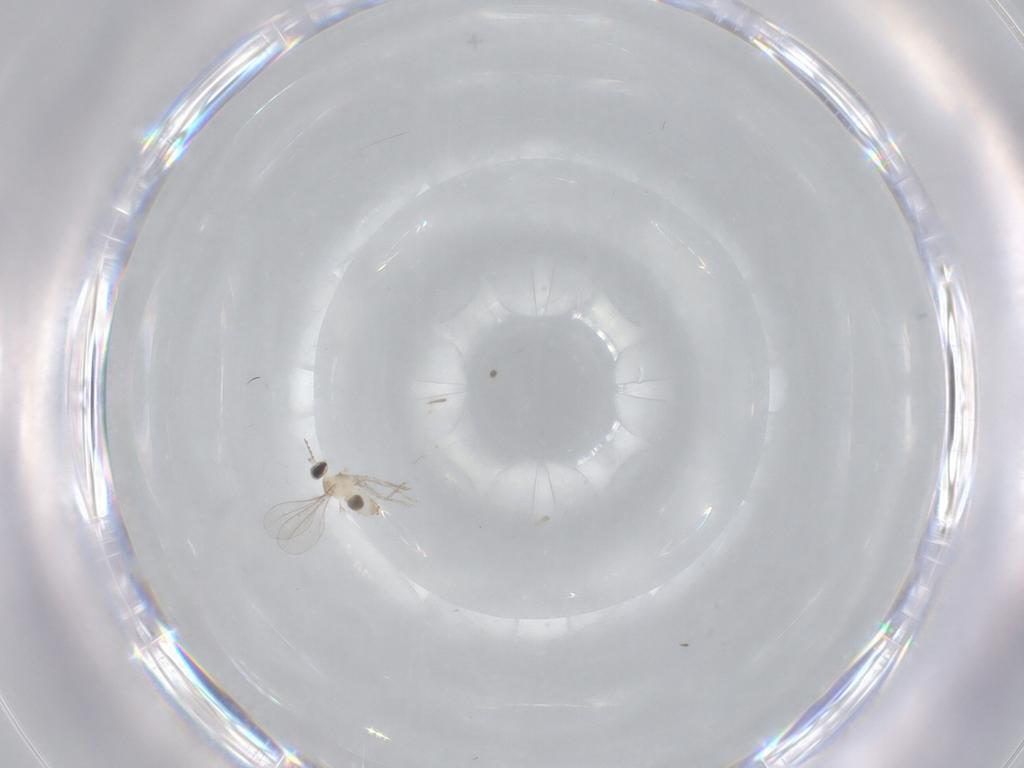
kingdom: Animalia
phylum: Arthropoda
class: Insecta
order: Diptera
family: Cecidomyiidae
